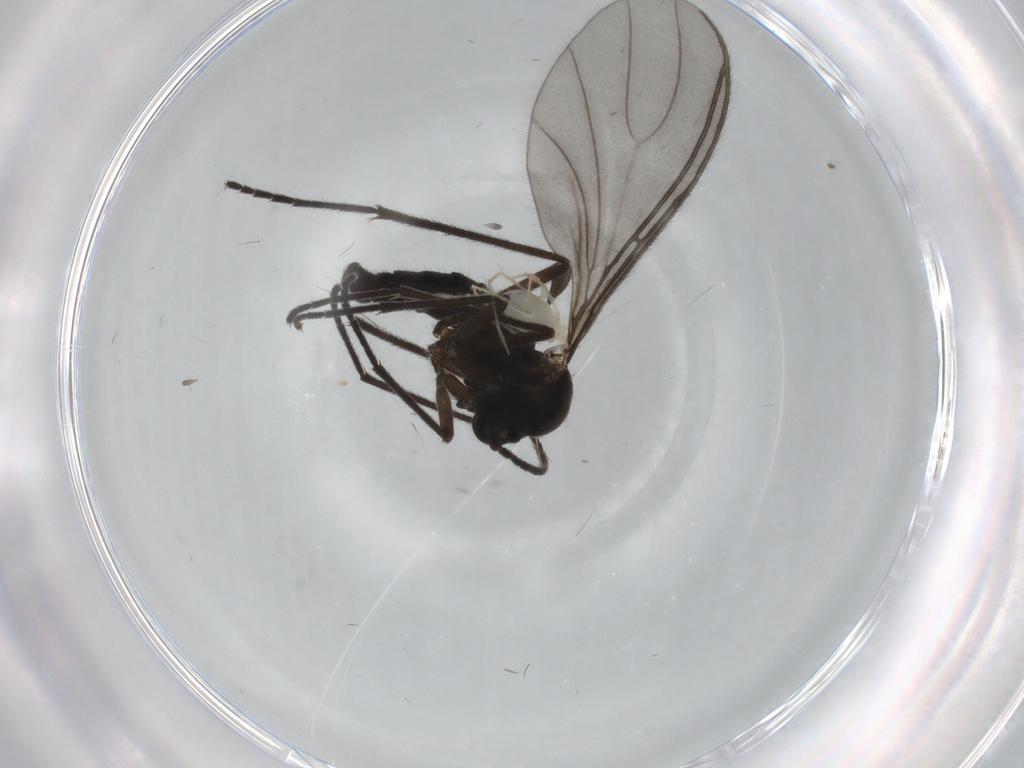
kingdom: Animalia
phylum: Arthropoda
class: Insecta
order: Diptera
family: Sciaridae
